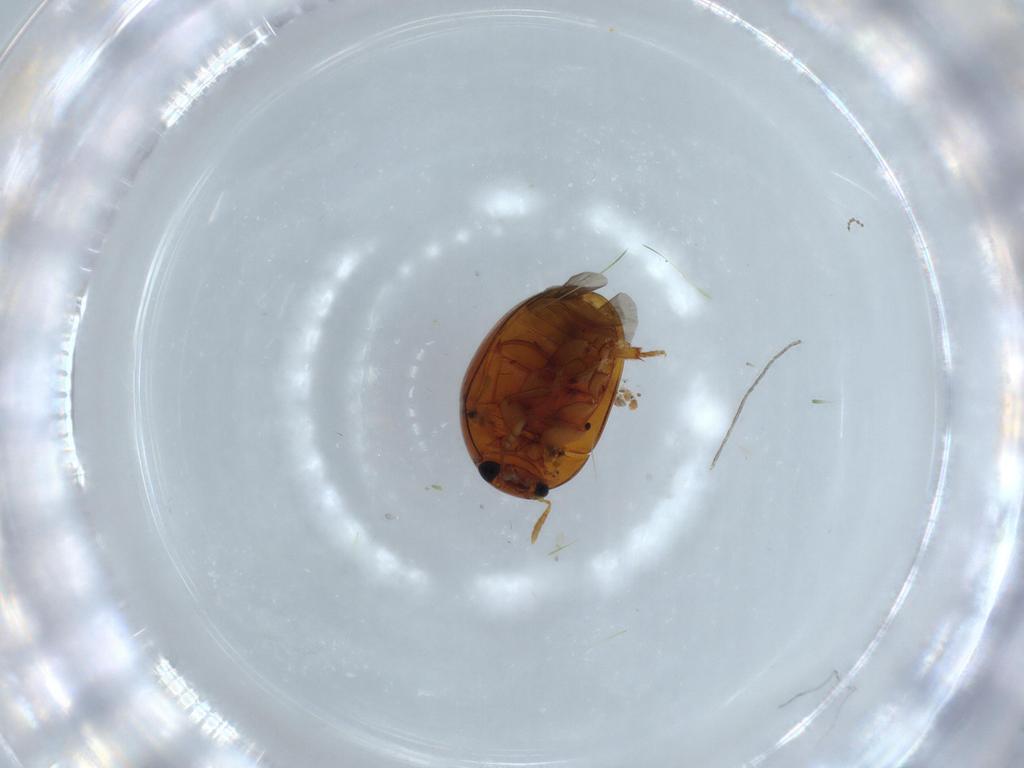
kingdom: Animalia
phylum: Arthropoda
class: Insecta
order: Coleoptera
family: Phalacridae
